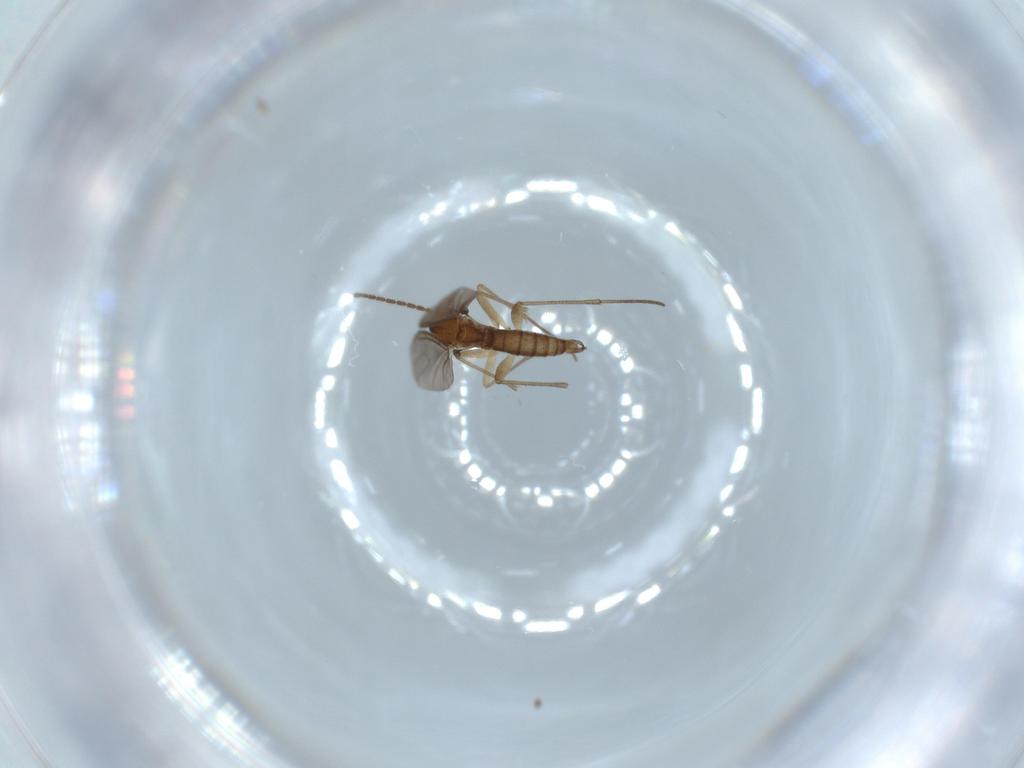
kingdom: Animalia
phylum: Arthropoda
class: Insecta
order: Diptera
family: Sciaridae
